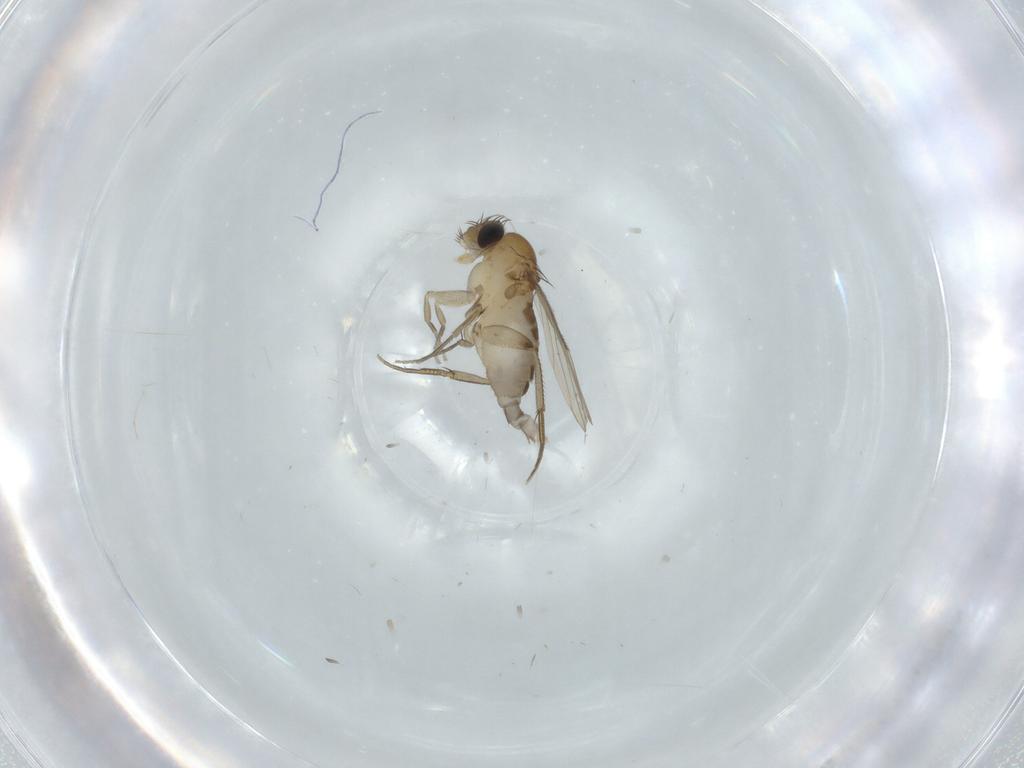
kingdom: Animalia
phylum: Arthropoda
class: Insecta
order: Diptera
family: Phoridae
